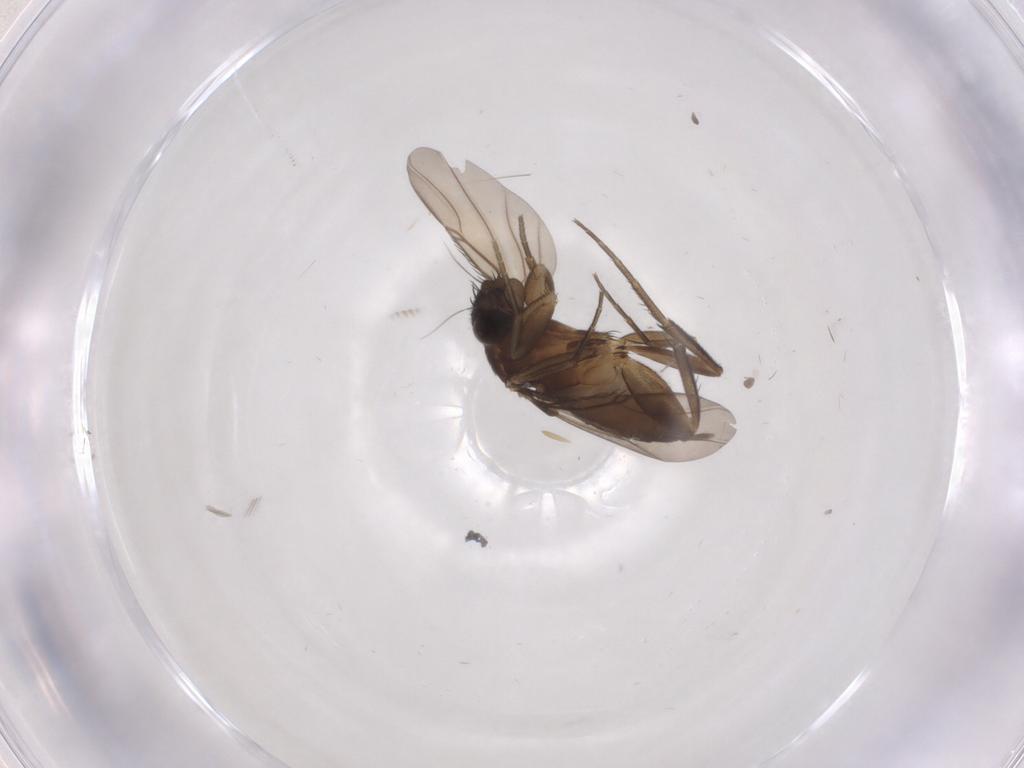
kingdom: Animalia
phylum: Arthropoda
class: Insecta
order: Diptera
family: Phoridae
